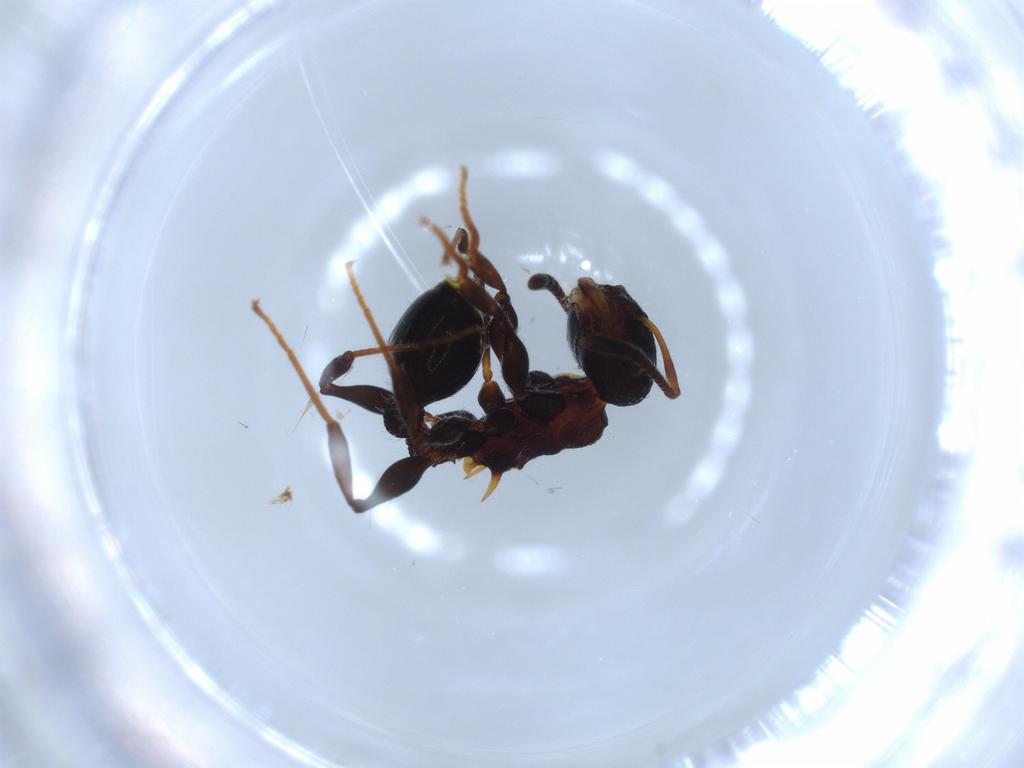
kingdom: Animalia
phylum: Arthropoda
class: Insecta
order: Hymenoptera
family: Formicidae
